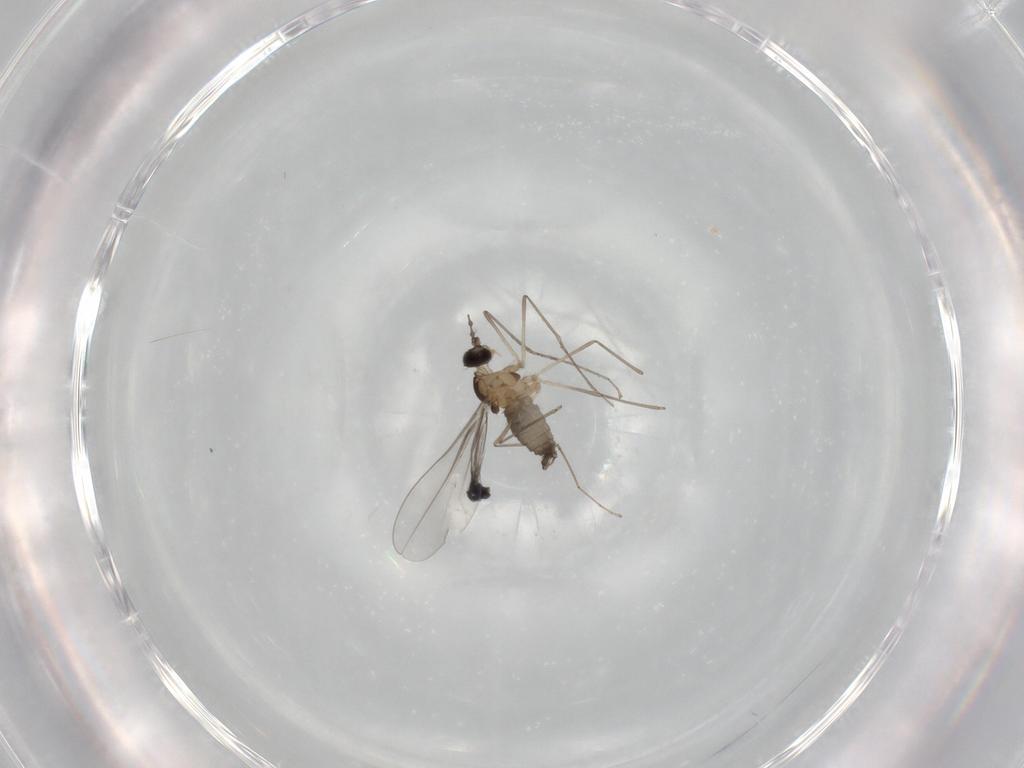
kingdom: Animalia
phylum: Arthropoda
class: Insecta
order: Diptera
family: Cecidomyiidae
